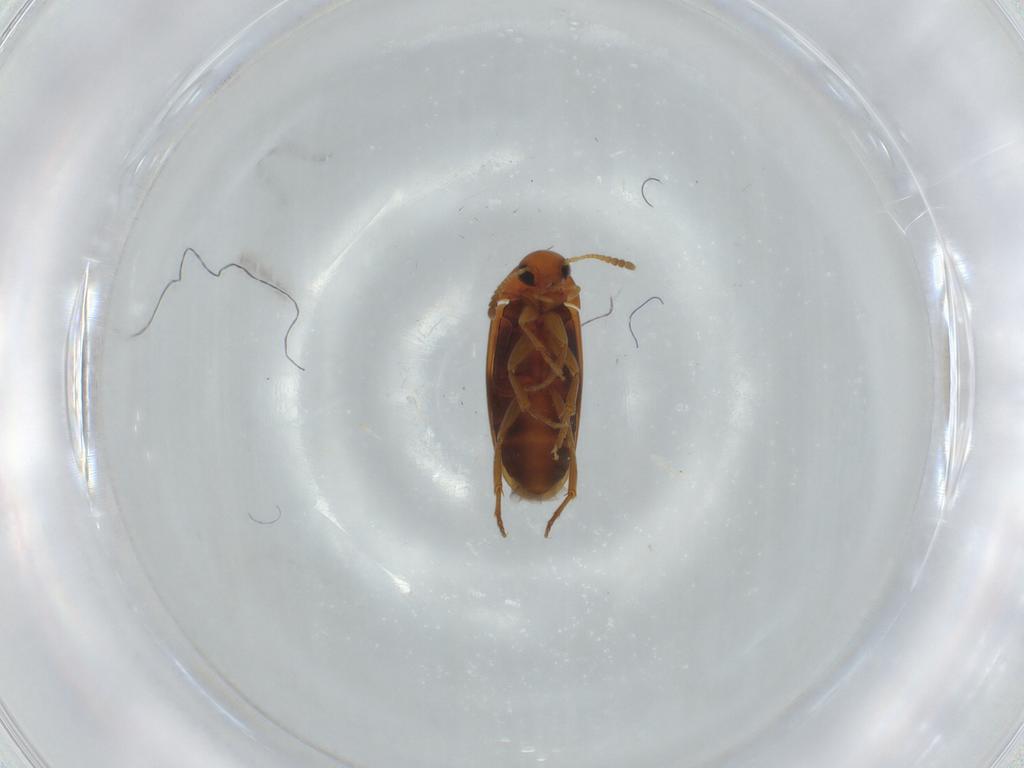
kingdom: Animalia
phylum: Arthropoda
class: Insecta
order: Coleoptera
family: Scraptiidae
